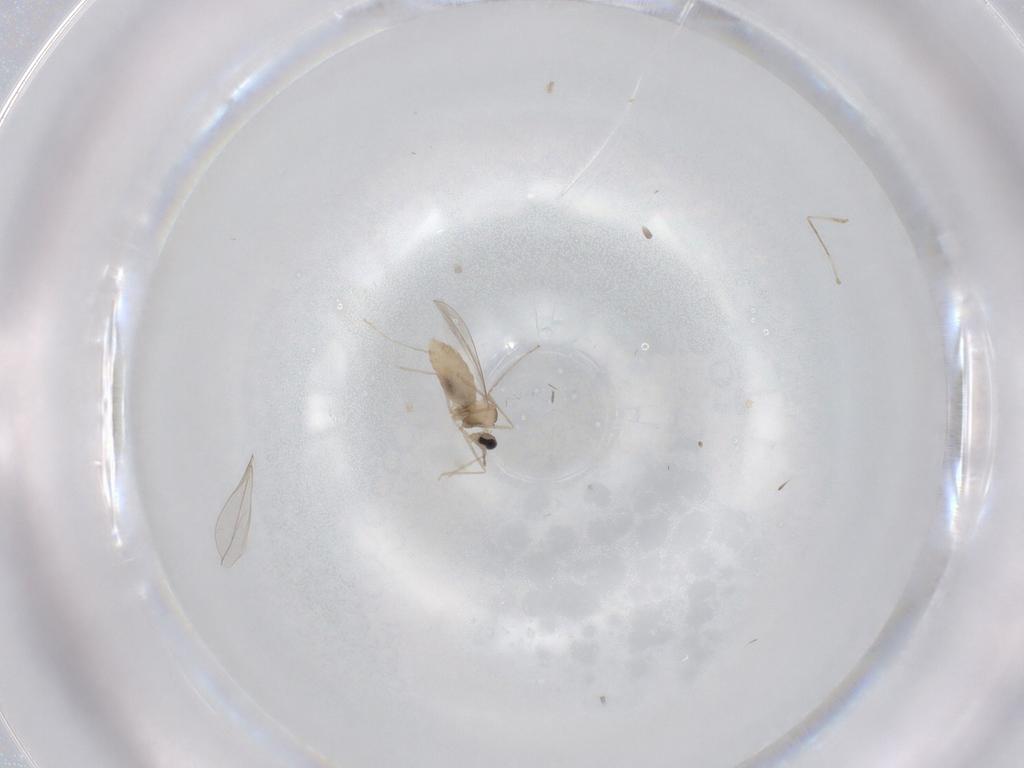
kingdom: Animalia
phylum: Arthropoda
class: Insecta
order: Diptera
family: Cecidomyiidae
